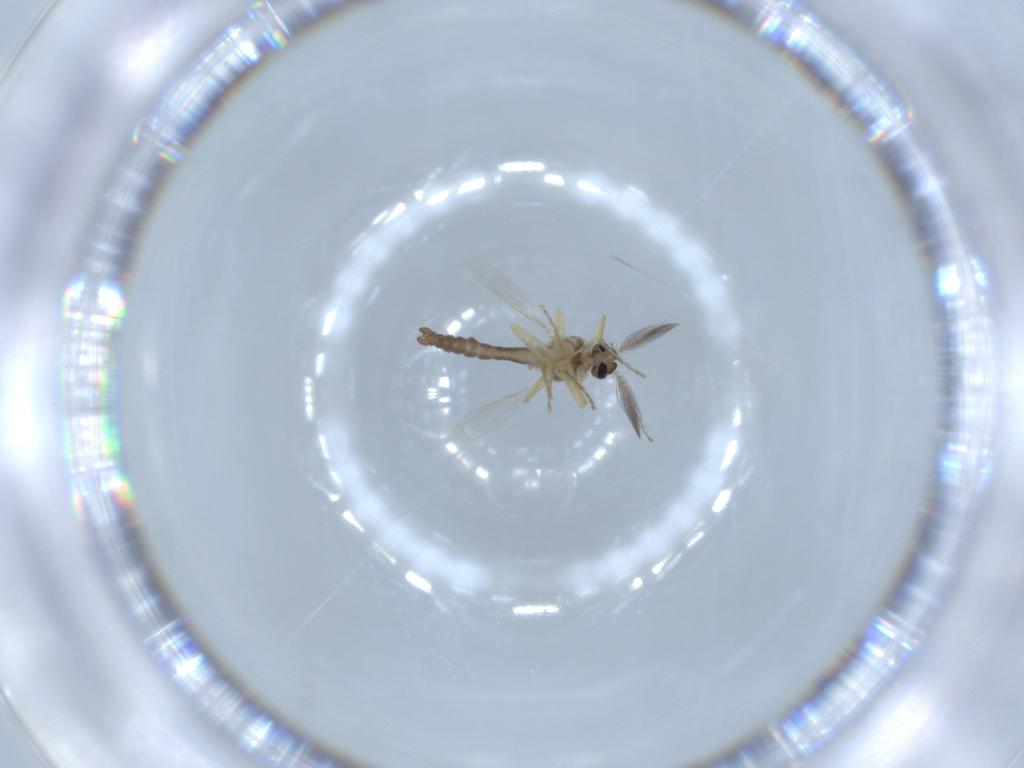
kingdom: Animalia
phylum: Arthropoda
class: Insecta
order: Diptera
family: Ceratopogonidae
